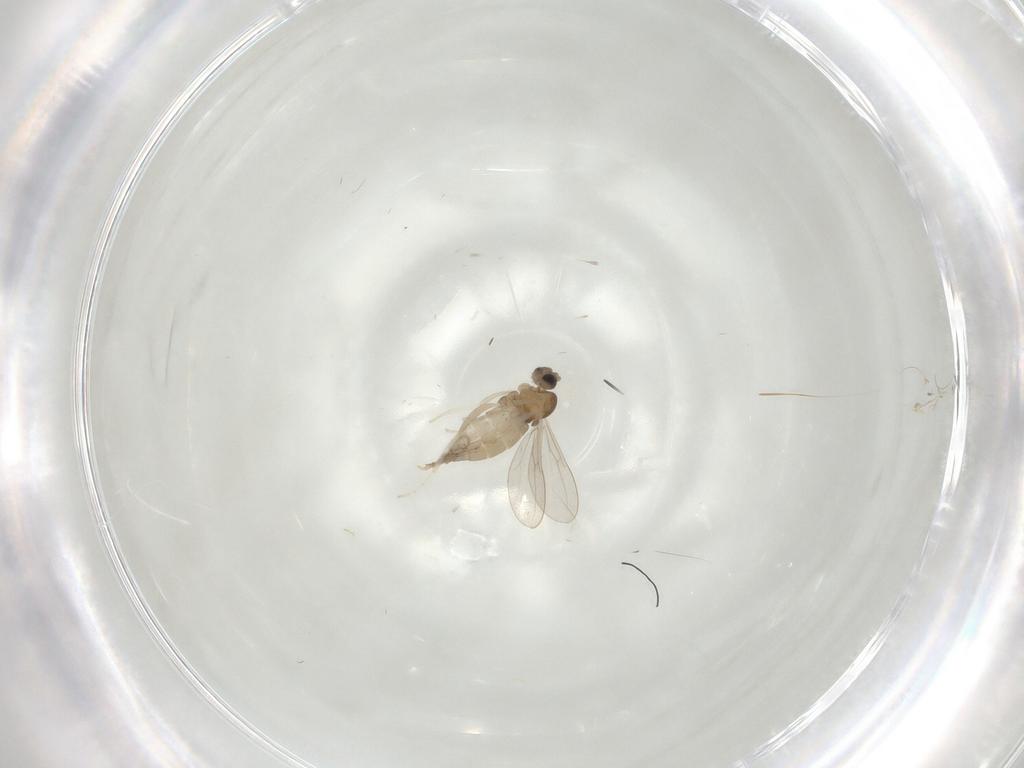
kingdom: Animalia
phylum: Arthropoda
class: Insecta
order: Diptera
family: Cecidomyiidae
